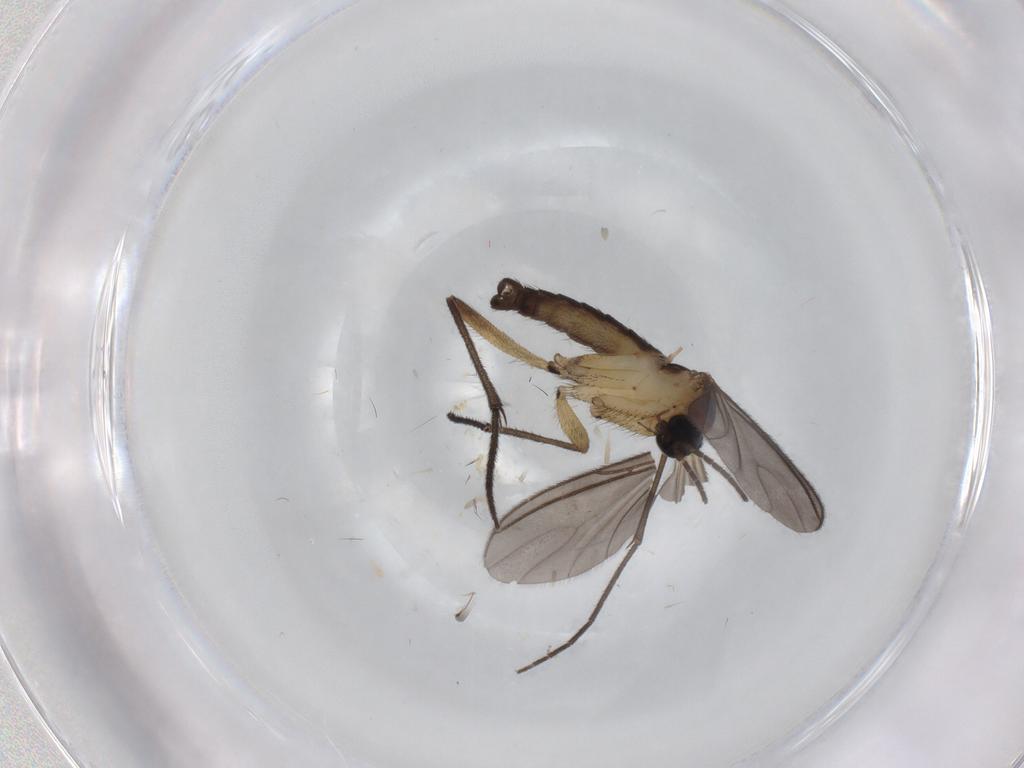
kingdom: Animalia
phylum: Arthropoda
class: Insecta
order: Diptera
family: Sciaridae
